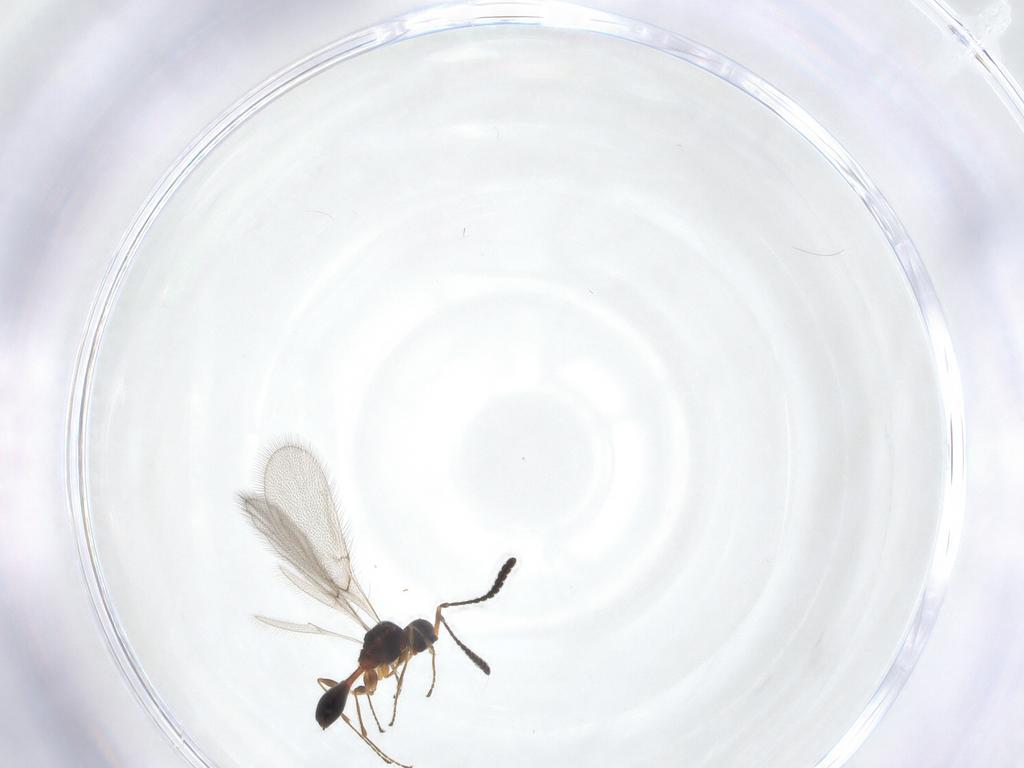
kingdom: Animalia
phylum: Arthropoda
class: Insecta
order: Hymenoptera
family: Diapriidae
